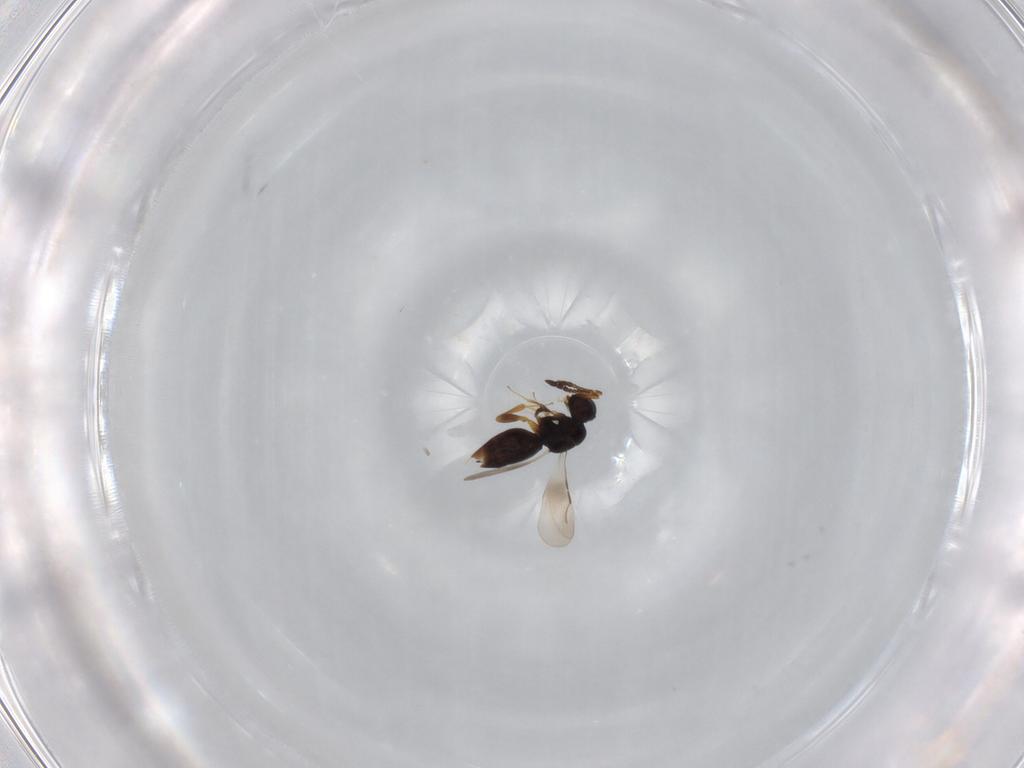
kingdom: Animalia
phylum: Arthropoda
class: Insecta
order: Hymenoptera
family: Ceraphronidae
